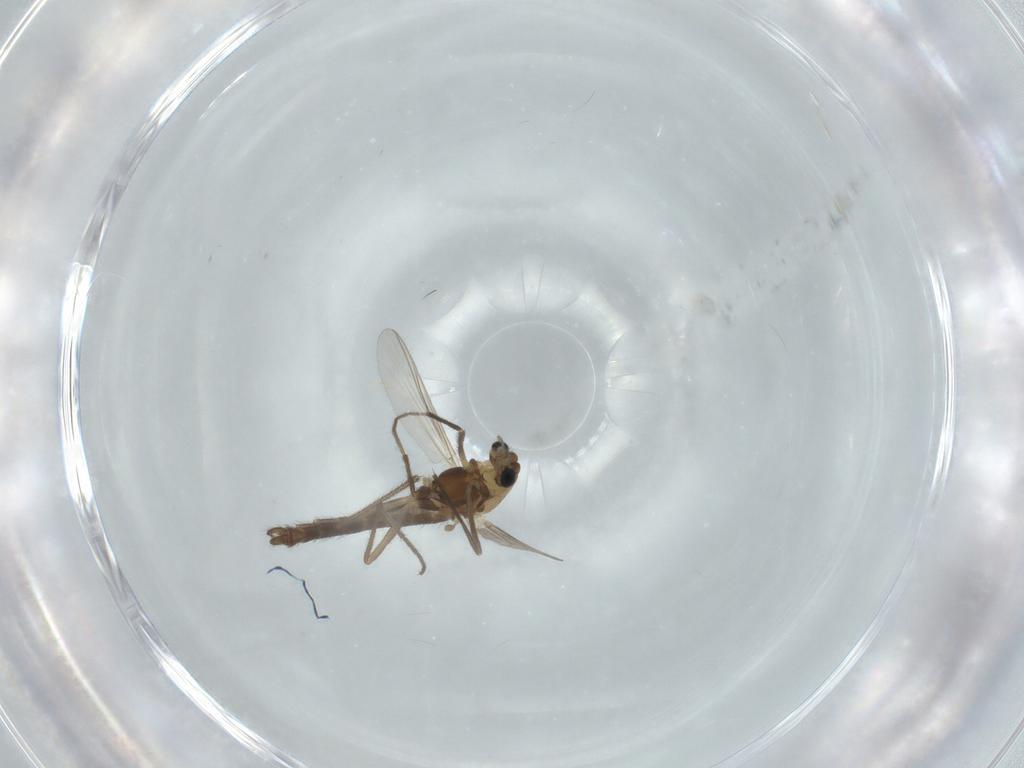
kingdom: Animalia
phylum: Arthropoda
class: Insecta
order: Diptera
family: Chironomidae
